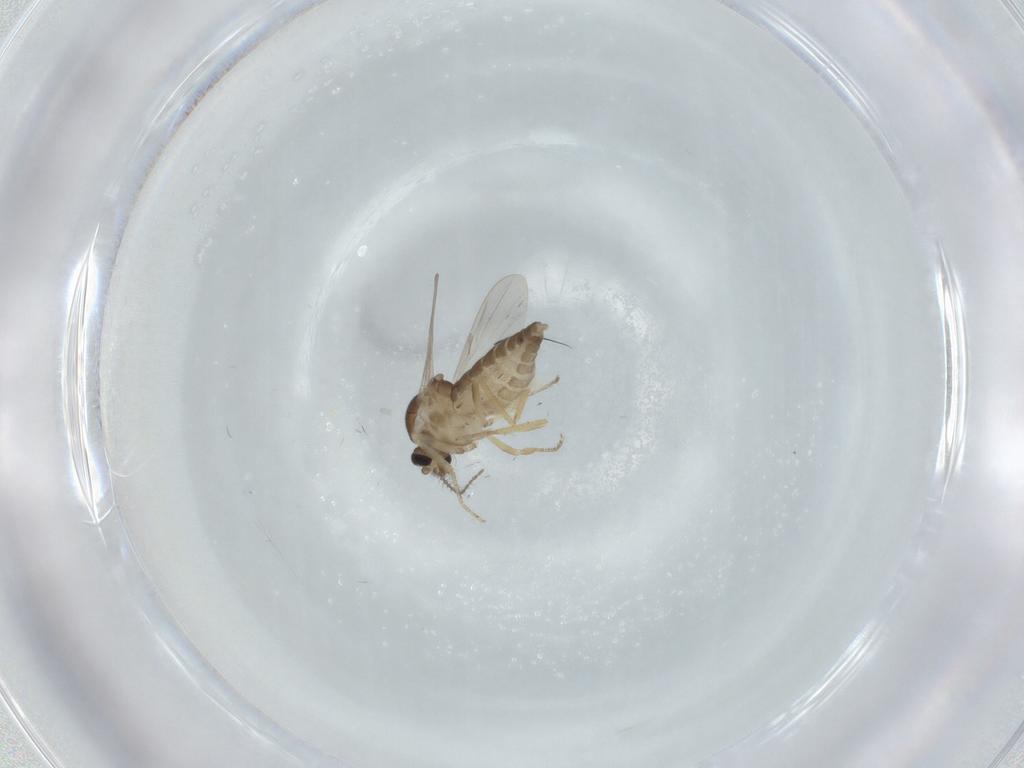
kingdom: Animalia
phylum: Arthropoda
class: Insecta
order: Diptera
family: Ceratopogonidae
